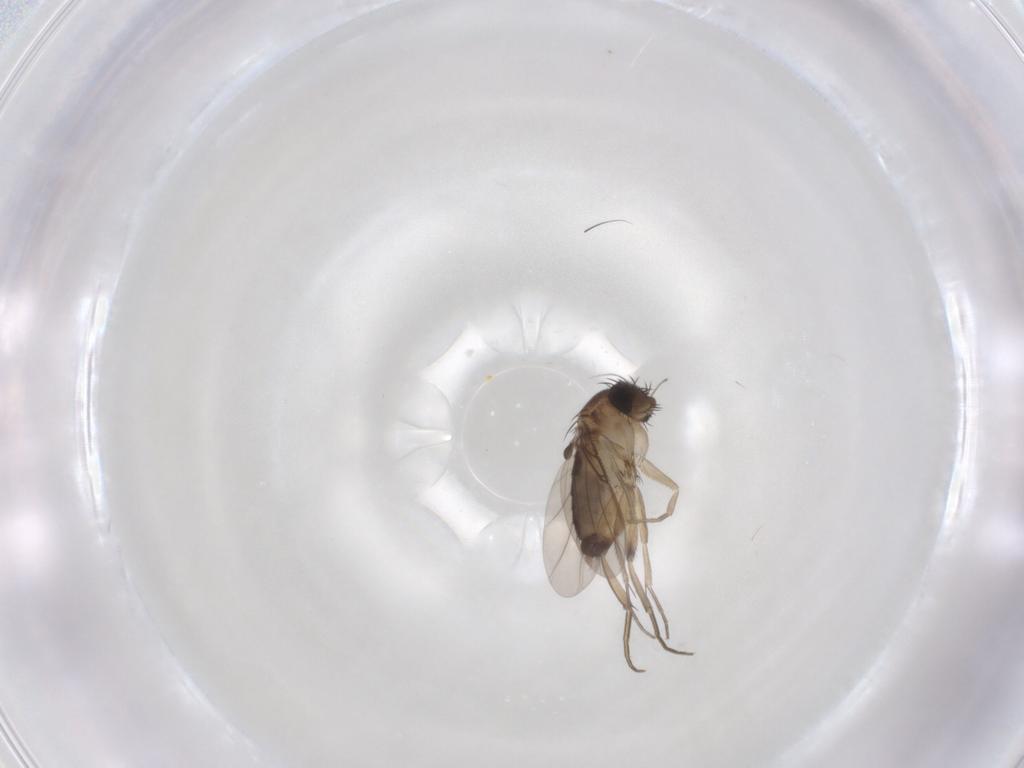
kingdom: Animalia
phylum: Arthropoda
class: Insecta
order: Diptera
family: Phoridae
